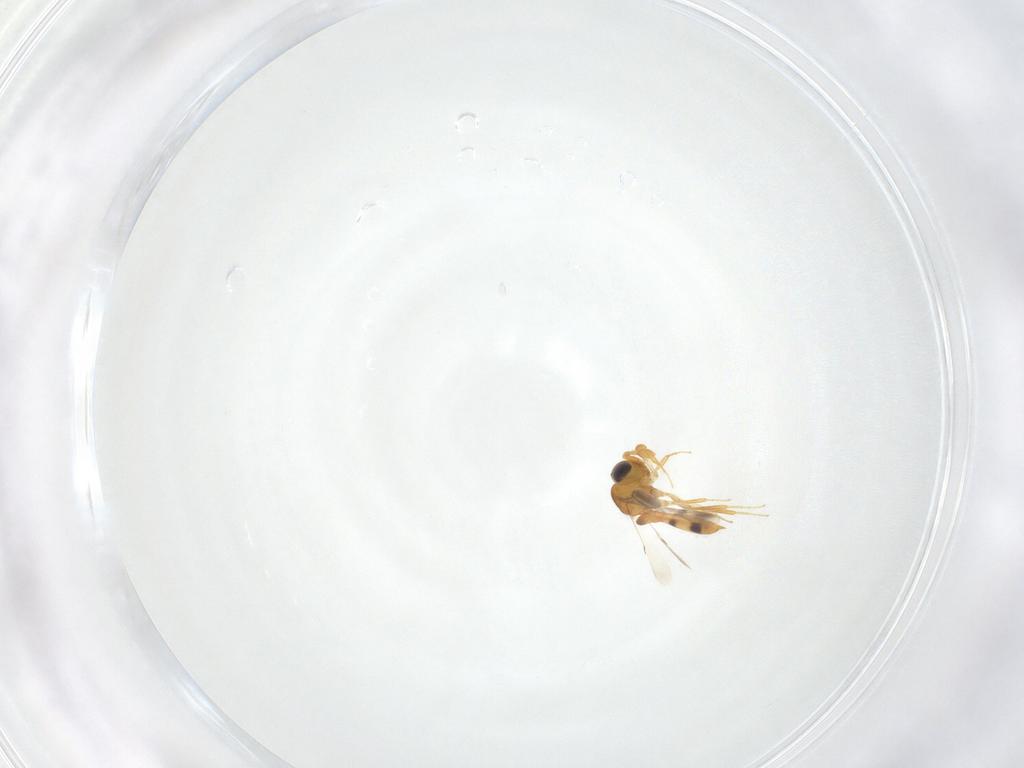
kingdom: Animalia
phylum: Arthropoda
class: Insecta
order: Hymenoptera
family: Scelionidae
